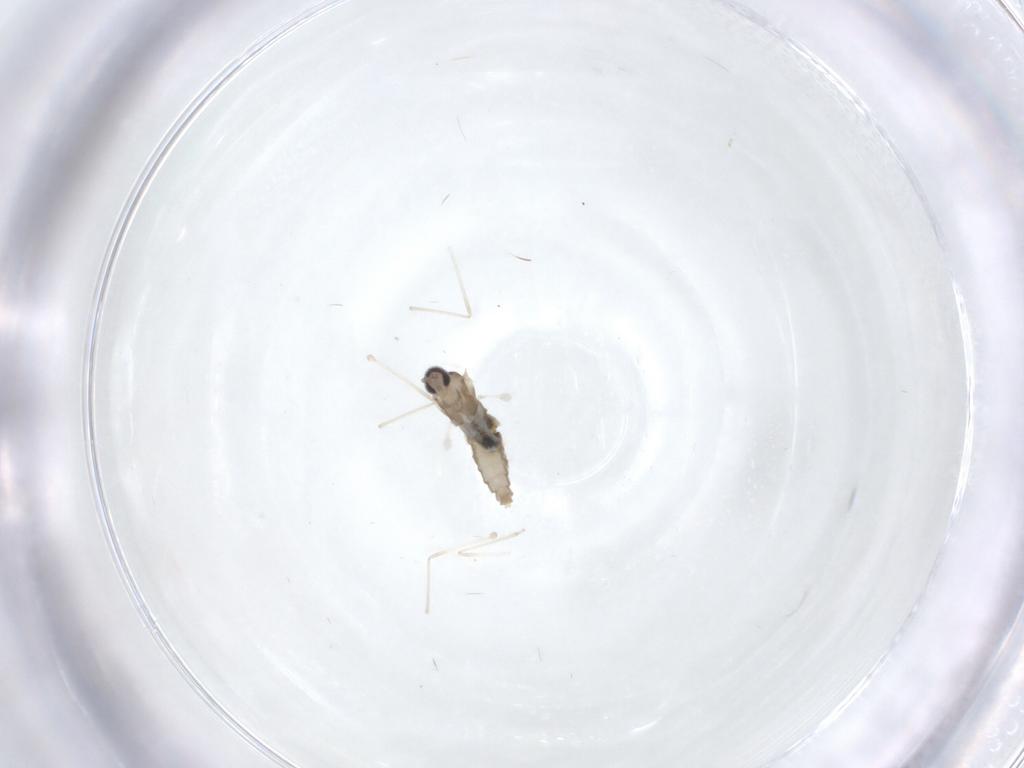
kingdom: Animalia
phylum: Arthropoda
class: Insecta
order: Diptera
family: Cecidomyiidae
